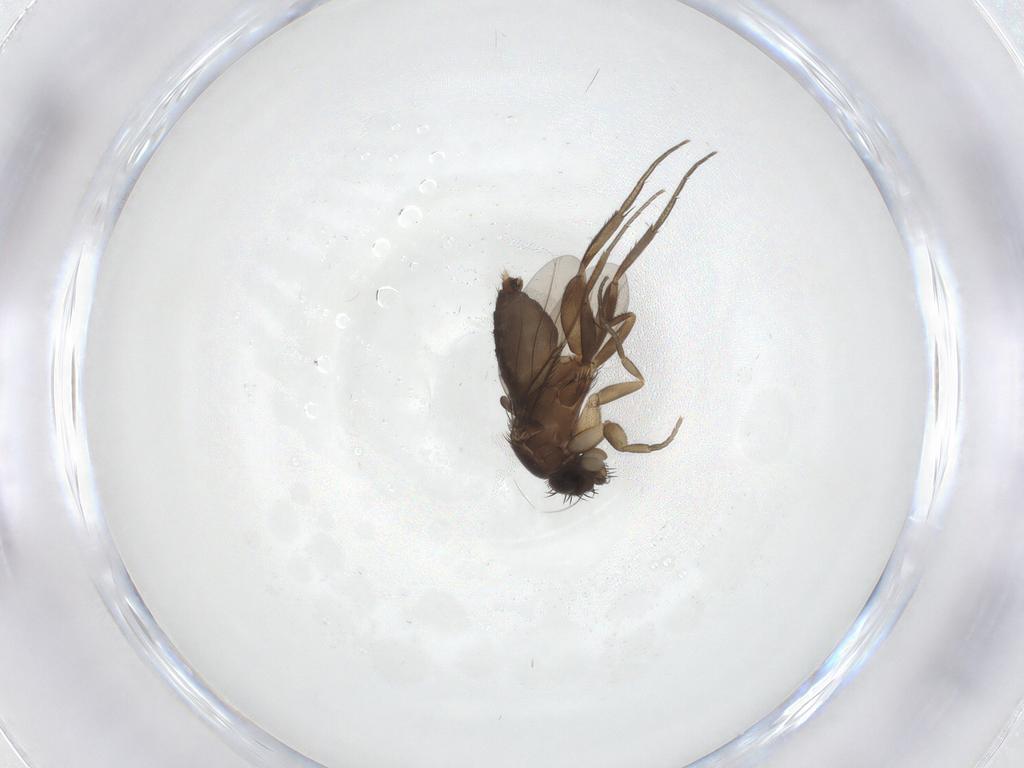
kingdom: Animalia
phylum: Arthropoda
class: Insecta
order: Diptera
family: Phoridae
